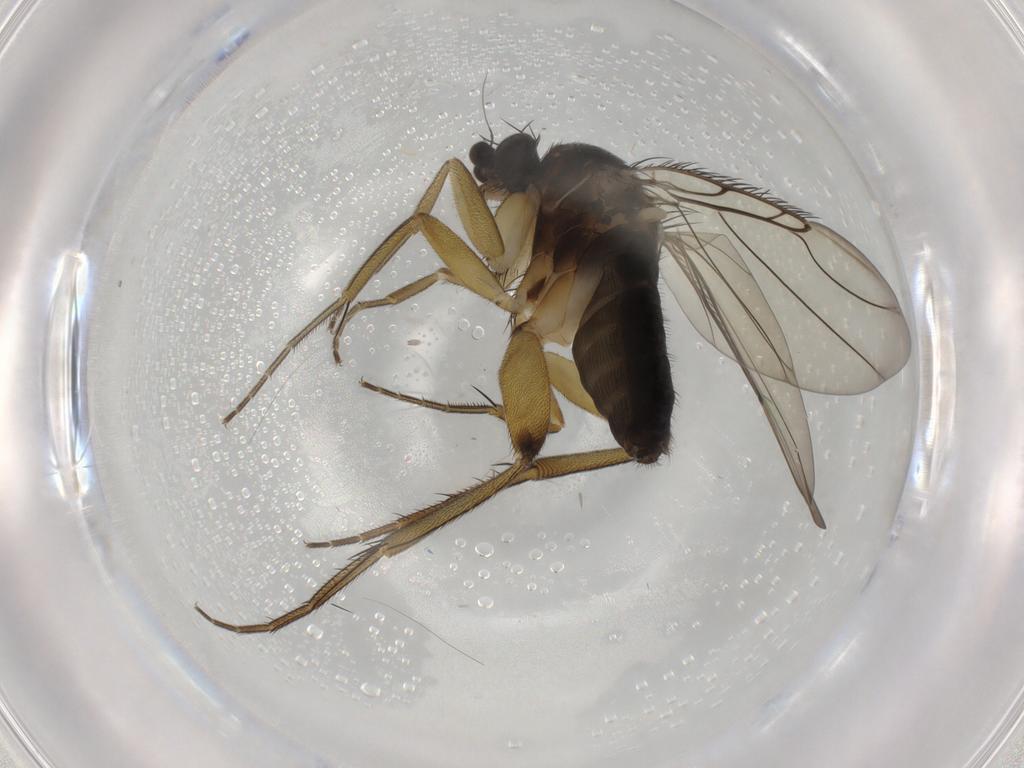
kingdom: Animalia
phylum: Arthropoda
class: Insecta
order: Diptera
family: Phoridae
